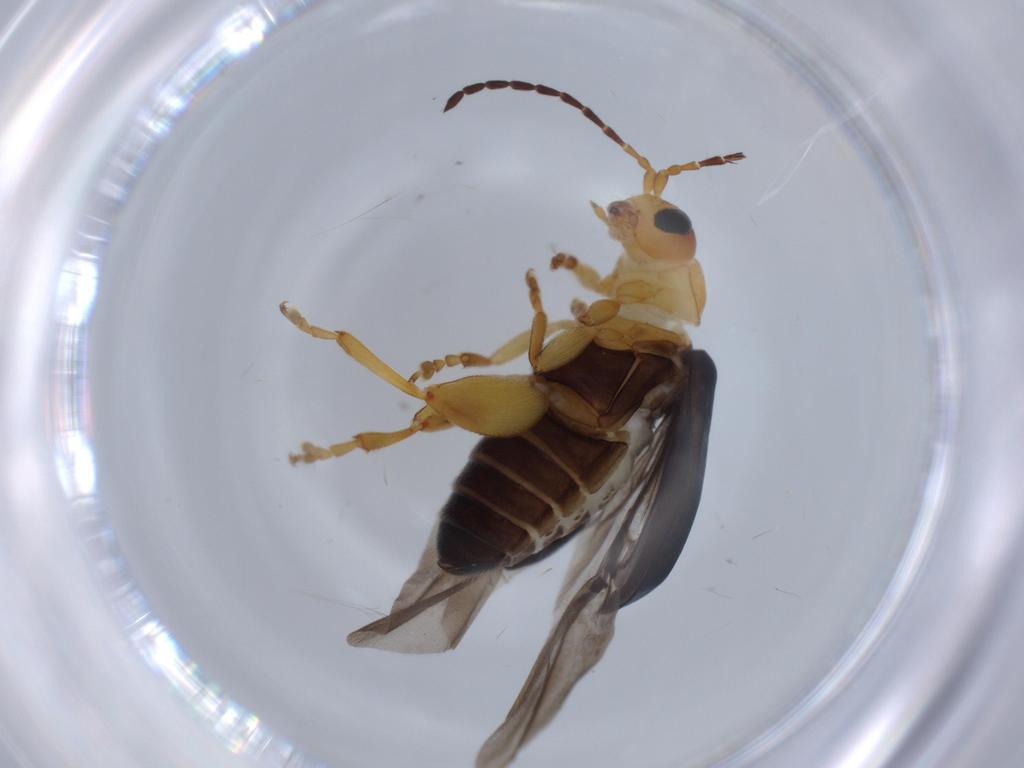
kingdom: Animalia
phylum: Arthropoda
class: Insecta
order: Coleoptera
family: Chrysomelidae
